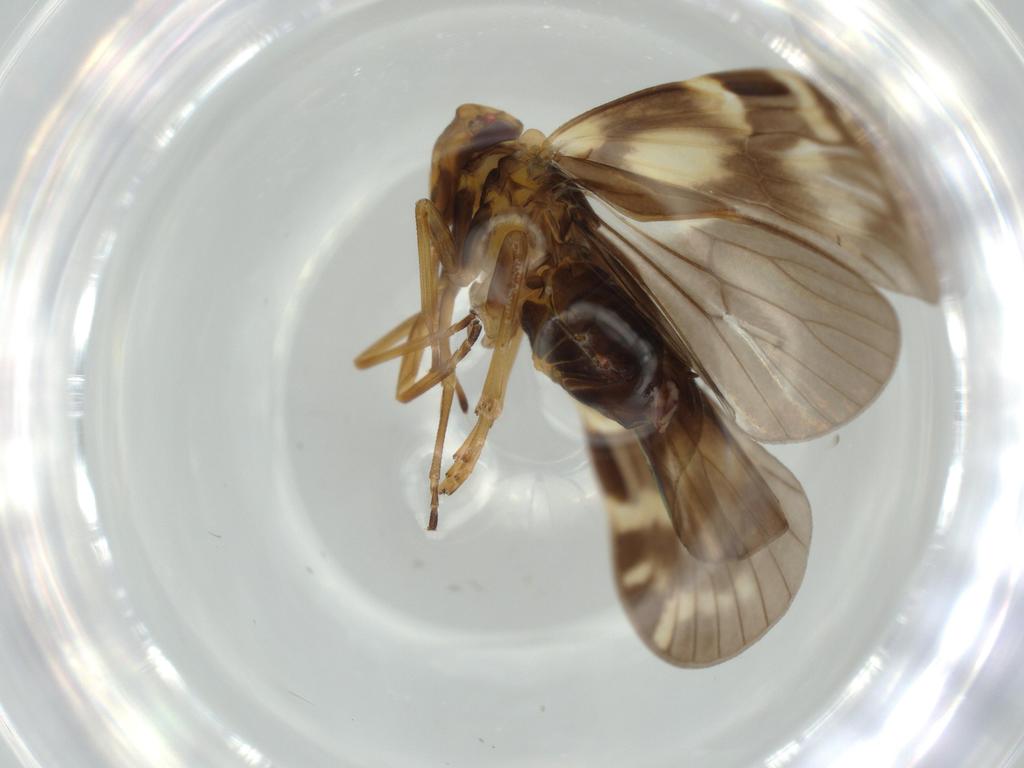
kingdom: Animalia
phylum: Arthropoda
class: Insecta
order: Hemiptera
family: Cixiidae
